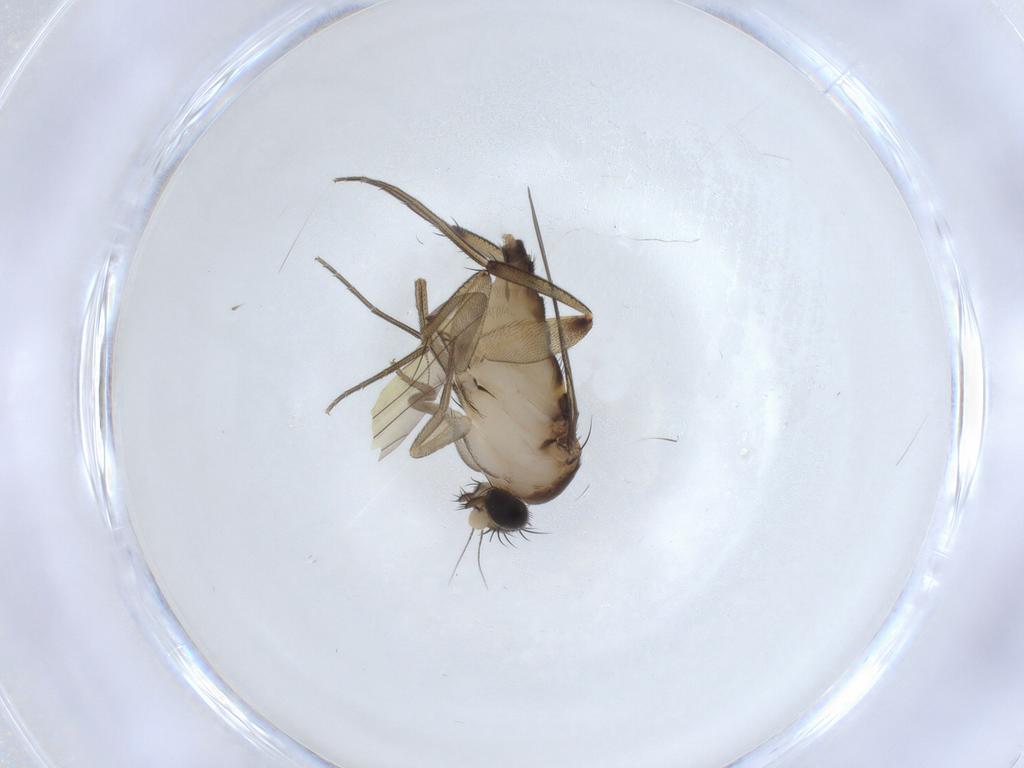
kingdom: Animalia
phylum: Arthropoda
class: Insecta
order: Diptera
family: Phoridae
